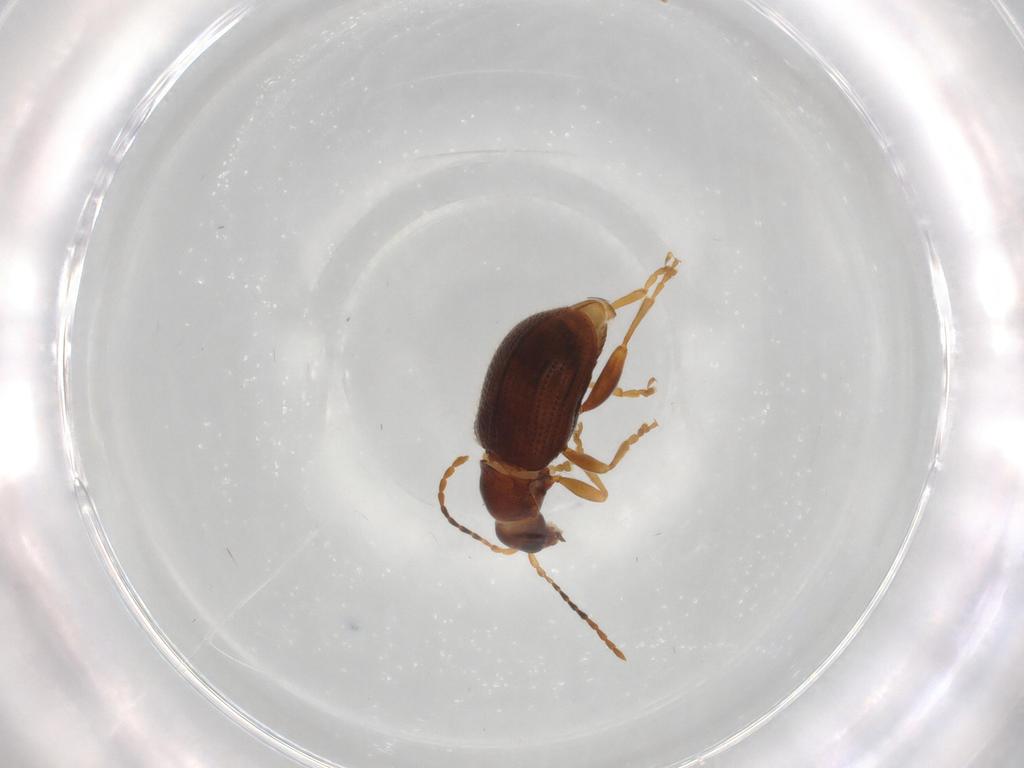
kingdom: Animalia
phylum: Arthropoda
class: Insecta
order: Coleoptera
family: Chrysomelidae
